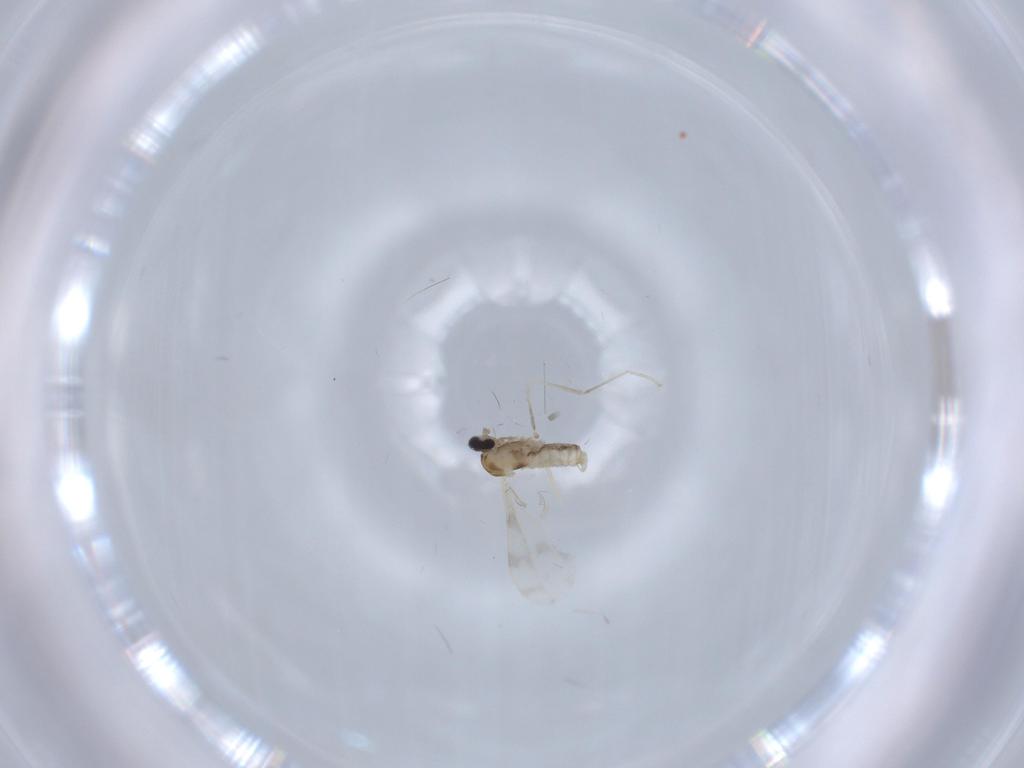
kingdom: Animalia
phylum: Arthropoda
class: Insecta
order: Diptera
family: Cecidomyiidae
